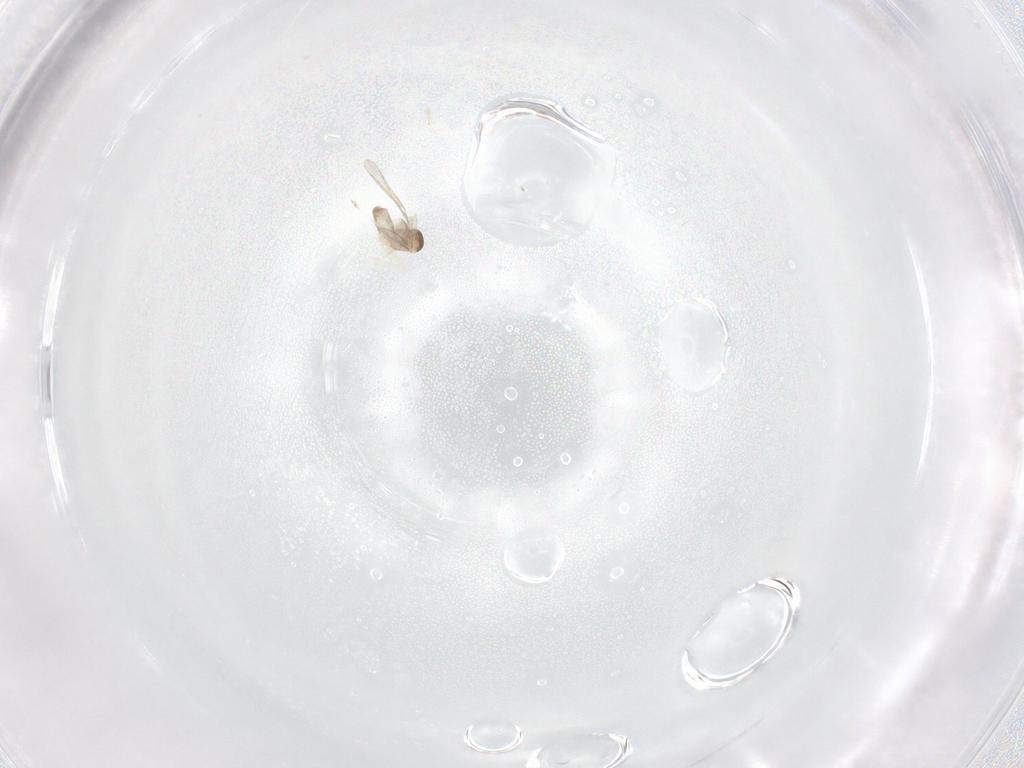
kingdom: Animalia
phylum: Arthropoda
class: Insecta
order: Diptera
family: Cecidomyiidae
